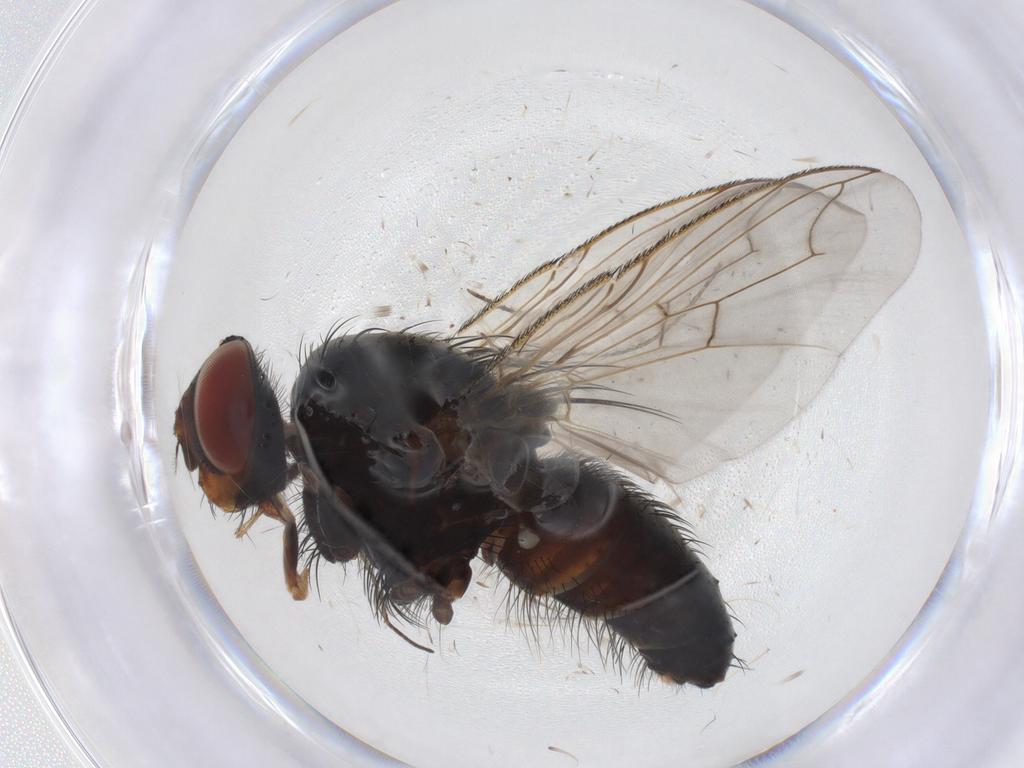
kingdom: Animalia
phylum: Arthropoda
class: Insecta
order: Diptera
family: Tachinidae
